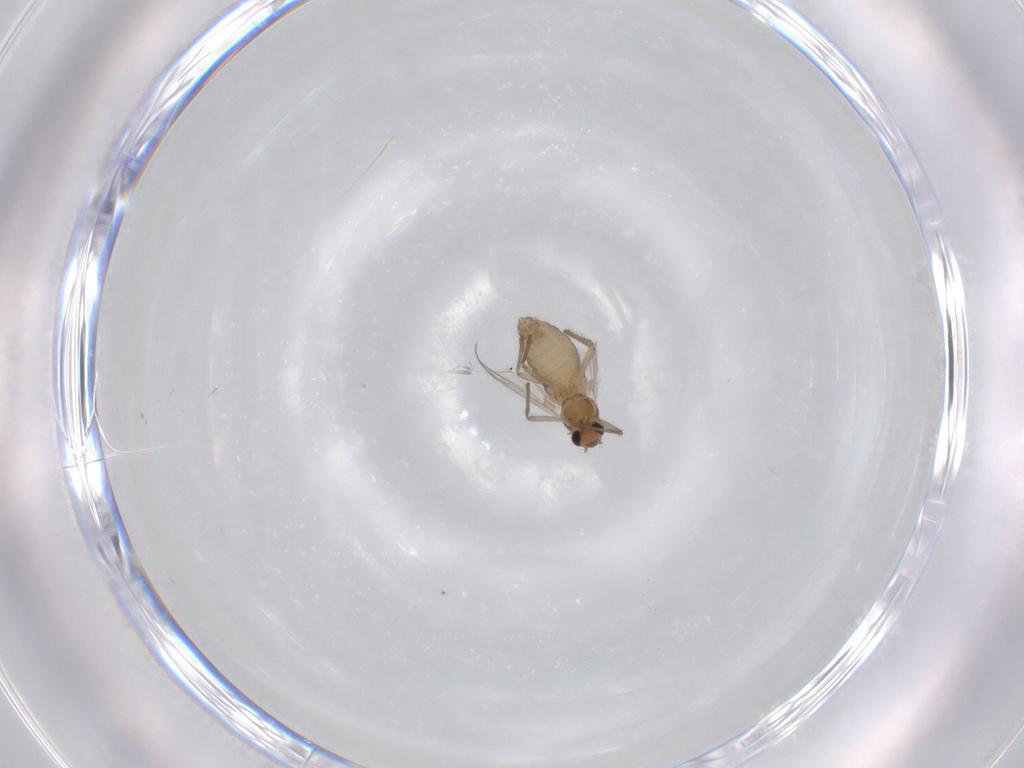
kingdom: Animalia
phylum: Arthropoda
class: Insecta
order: Diptera
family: Chironomidae
